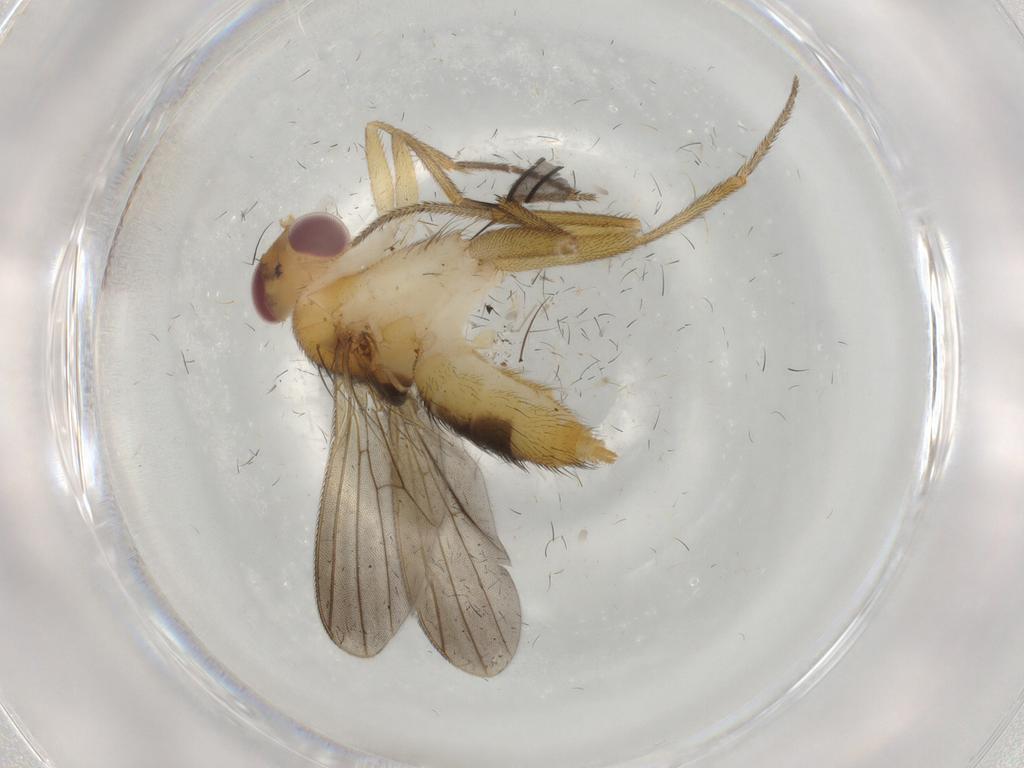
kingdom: Animalia
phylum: Arthropoda
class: Insecta
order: Diptera
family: Clusiidae
